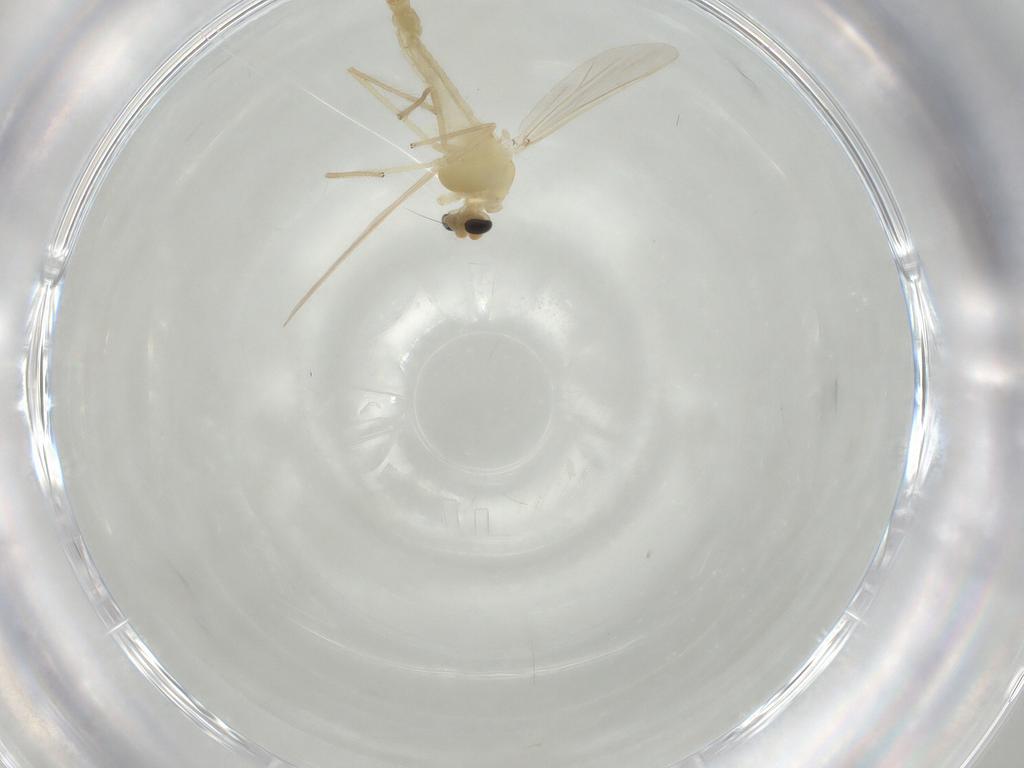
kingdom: Animalia
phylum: Arthropoda
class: Insecta
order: Diptera
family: Chironomidae
